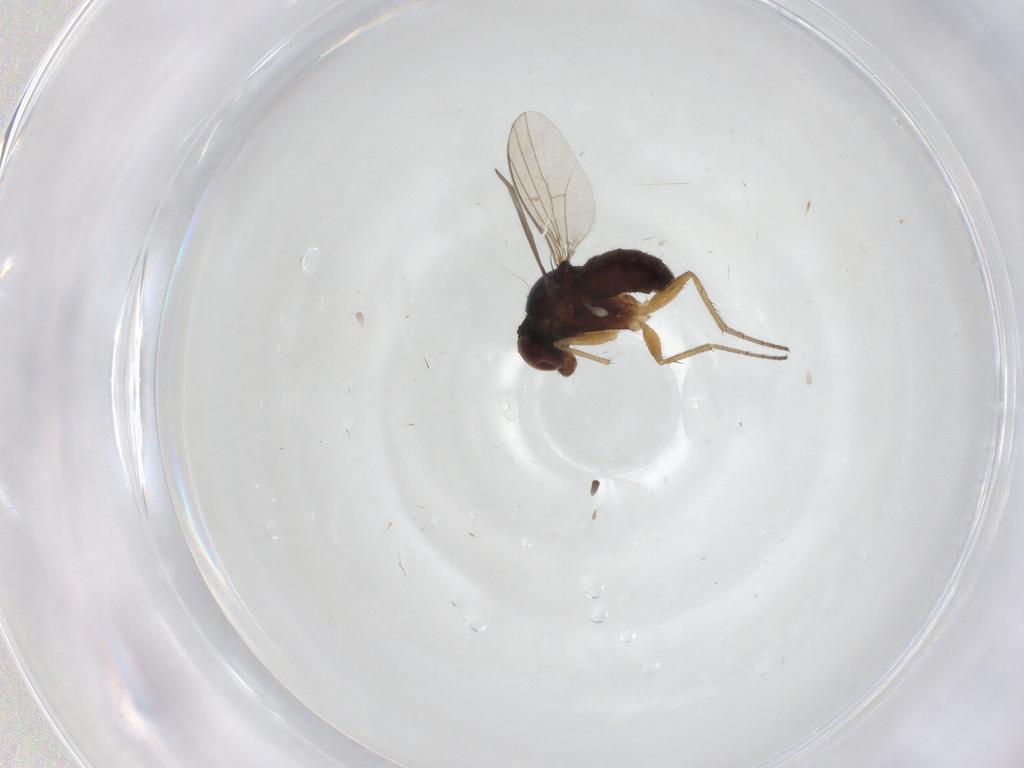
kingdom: Animalia
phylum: Arthropoda
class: Insecta
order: Diptera
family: Dolichopodidae
